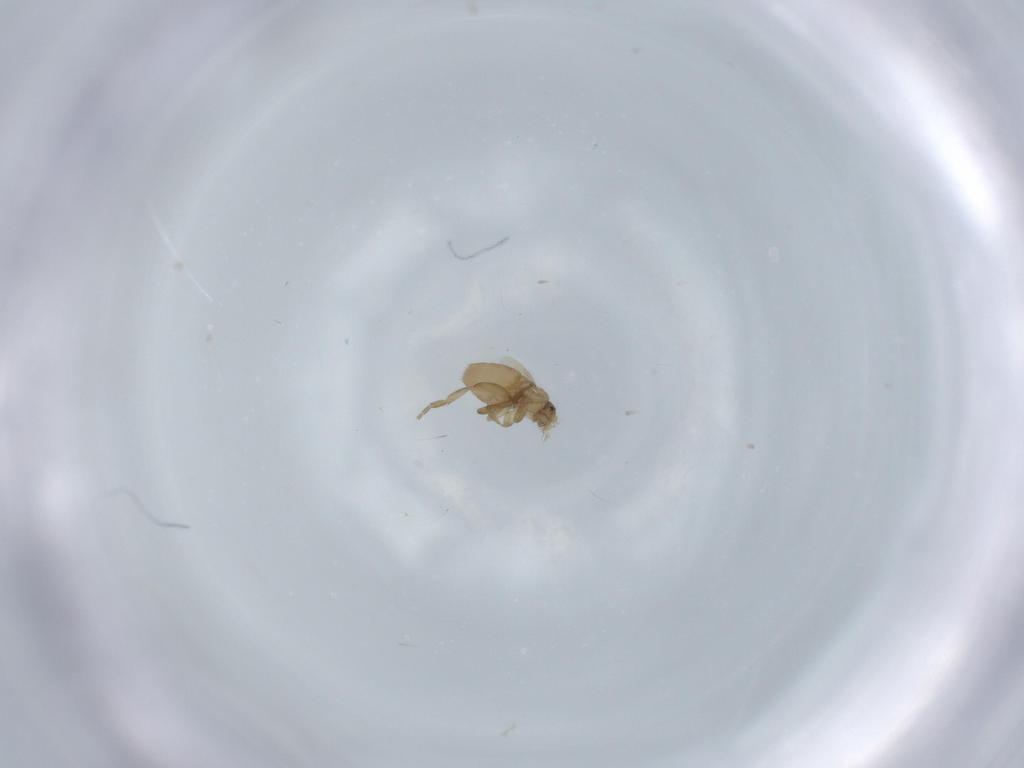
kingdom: Animalia
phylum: Arthropoda
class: Insecta
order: Diptera
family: Phoridae
